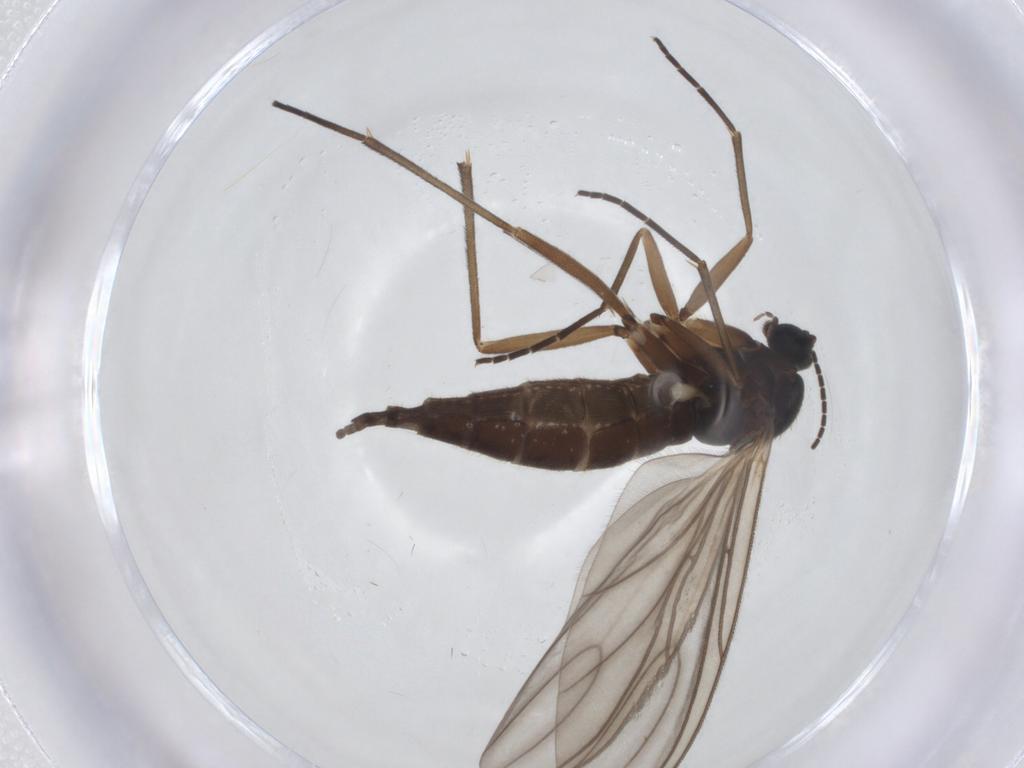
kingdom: Animalia
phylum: Arthropoda
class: Insecta
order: Diptera
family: Sciaridae
